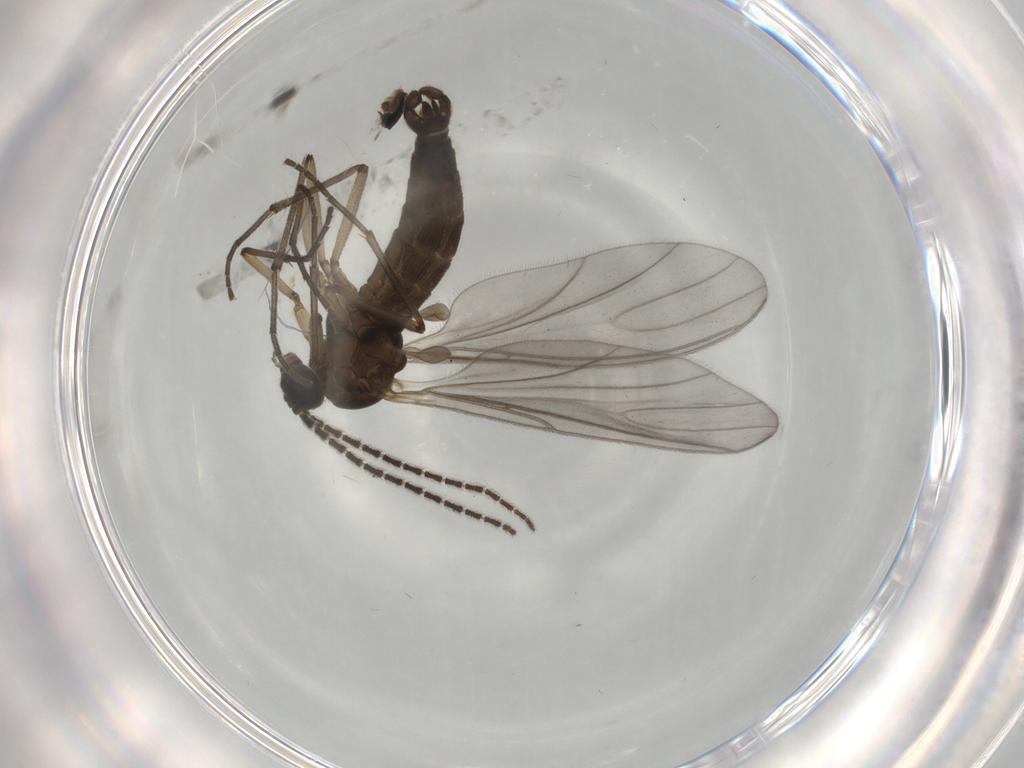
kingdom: Animalia
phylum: Arthropoda
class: Insecta
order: Diptera
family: Sciaridae
